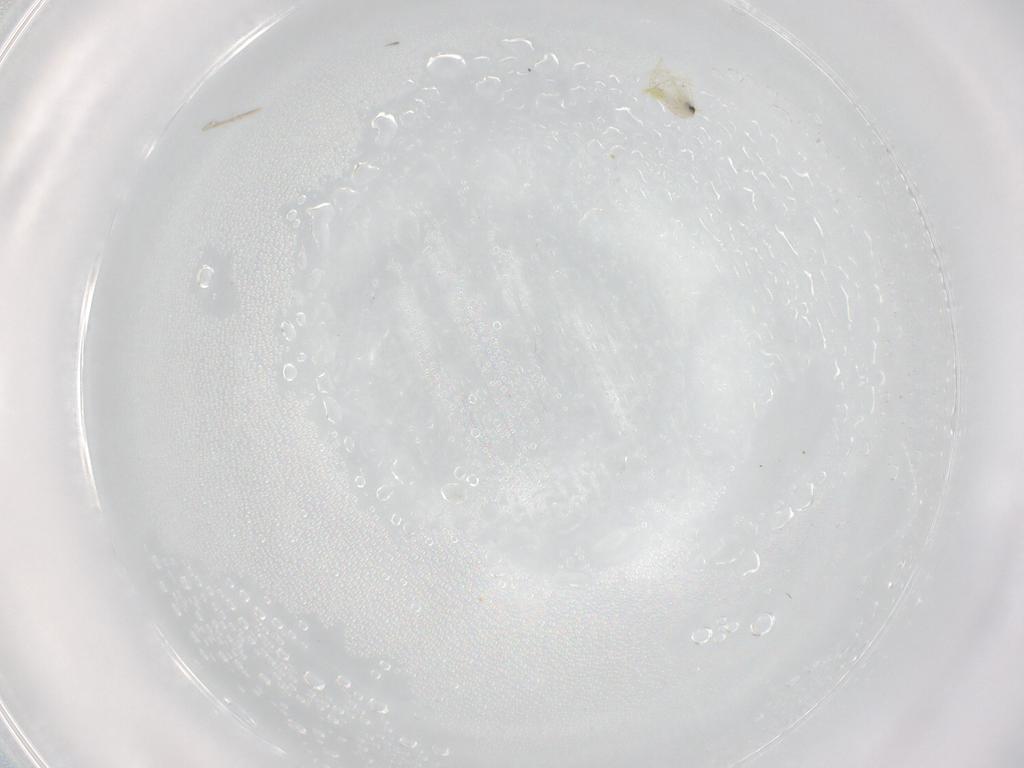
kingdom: Animalia
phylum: Arthropoda
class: Insecta
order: Hemiptera
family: Aleyrodidae
